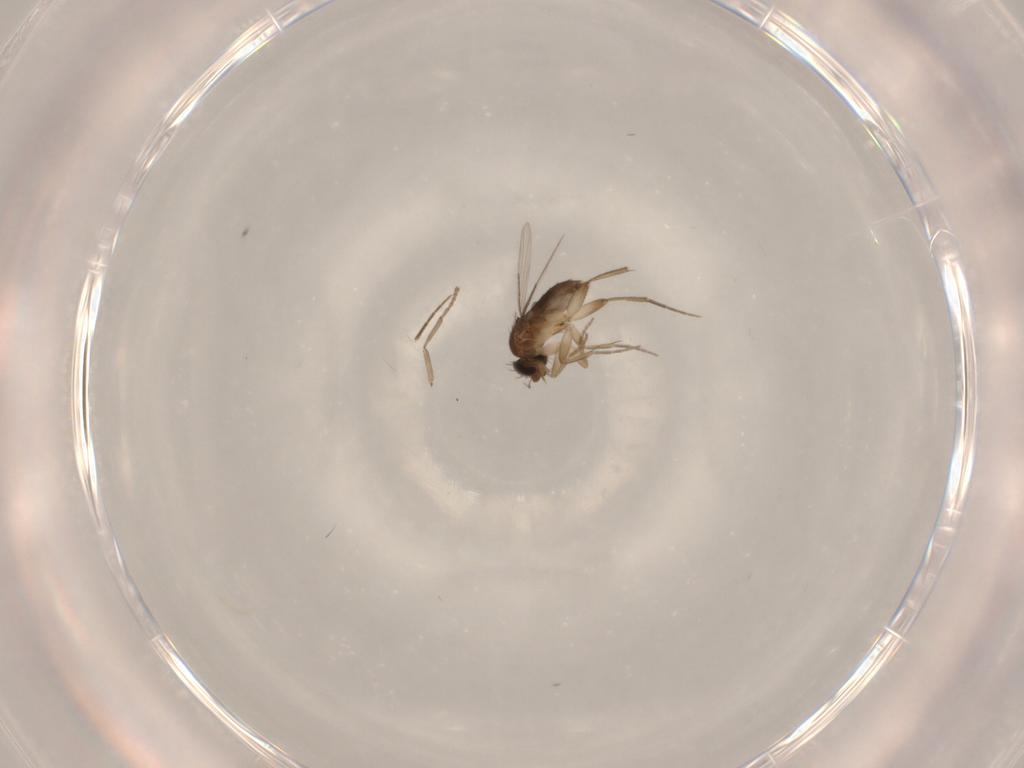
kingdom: Animalia
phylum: Arthropoda
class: Insecta
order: Diptera
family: Phoridae
